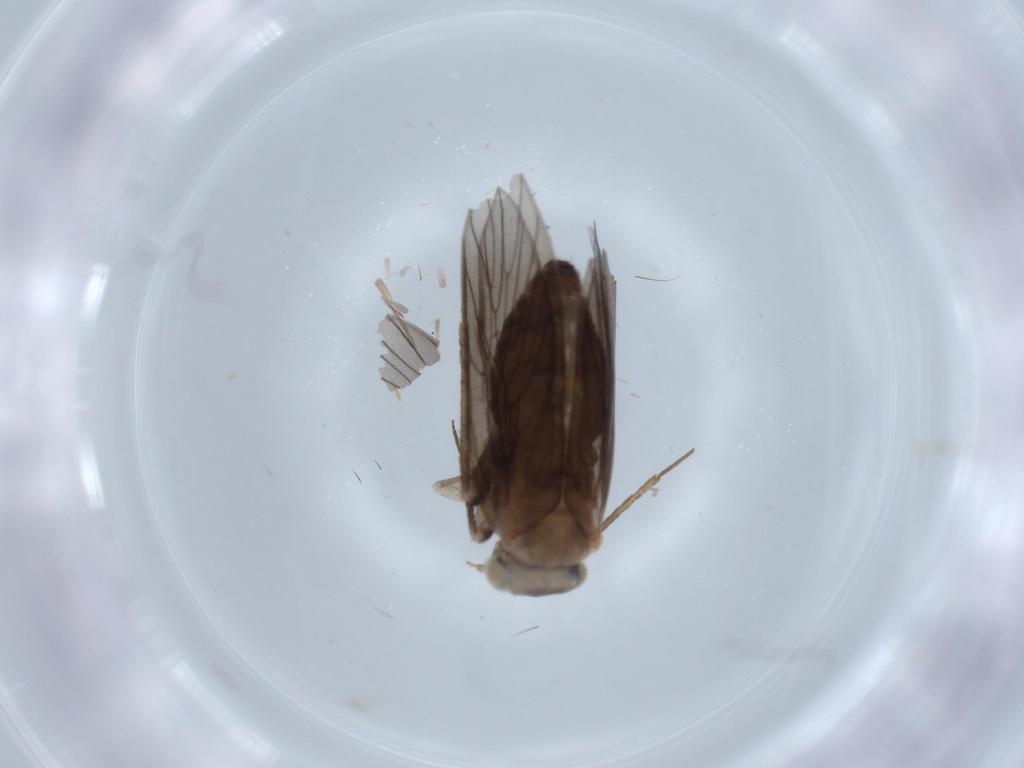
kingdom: Animalia
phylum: Arthropoda
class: Insecta
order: Psocodea
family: Lepidopsocidae
